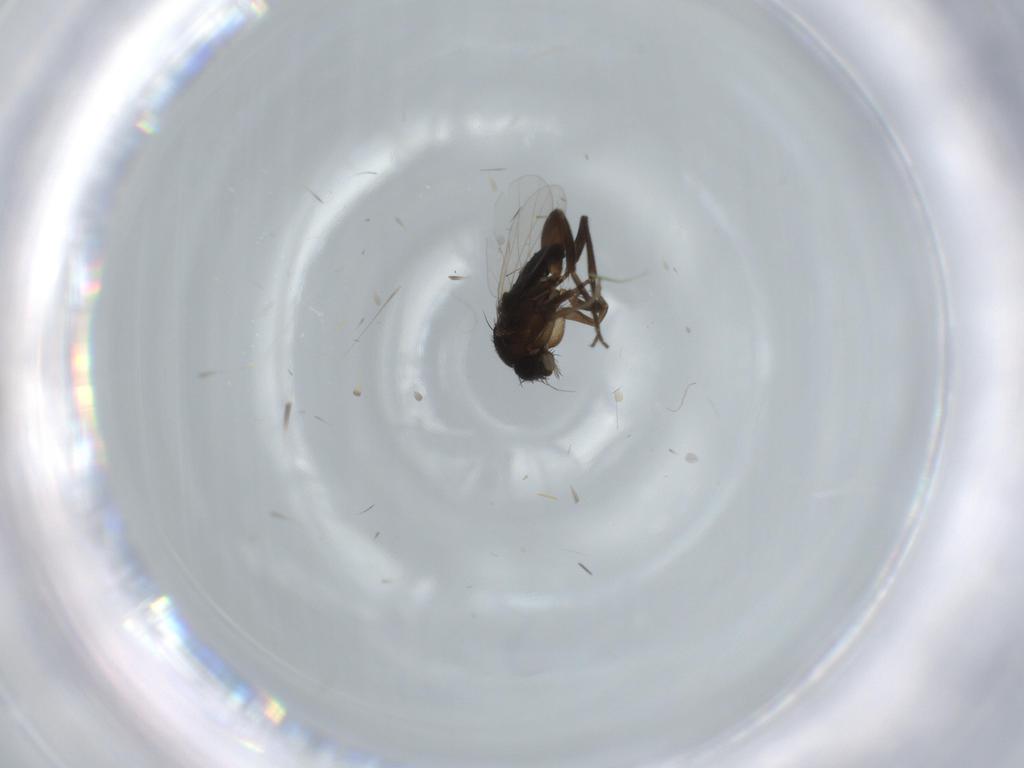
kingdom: Animalia
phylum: Arthropoda
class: Insecta
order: Diptera
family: Phoridae
